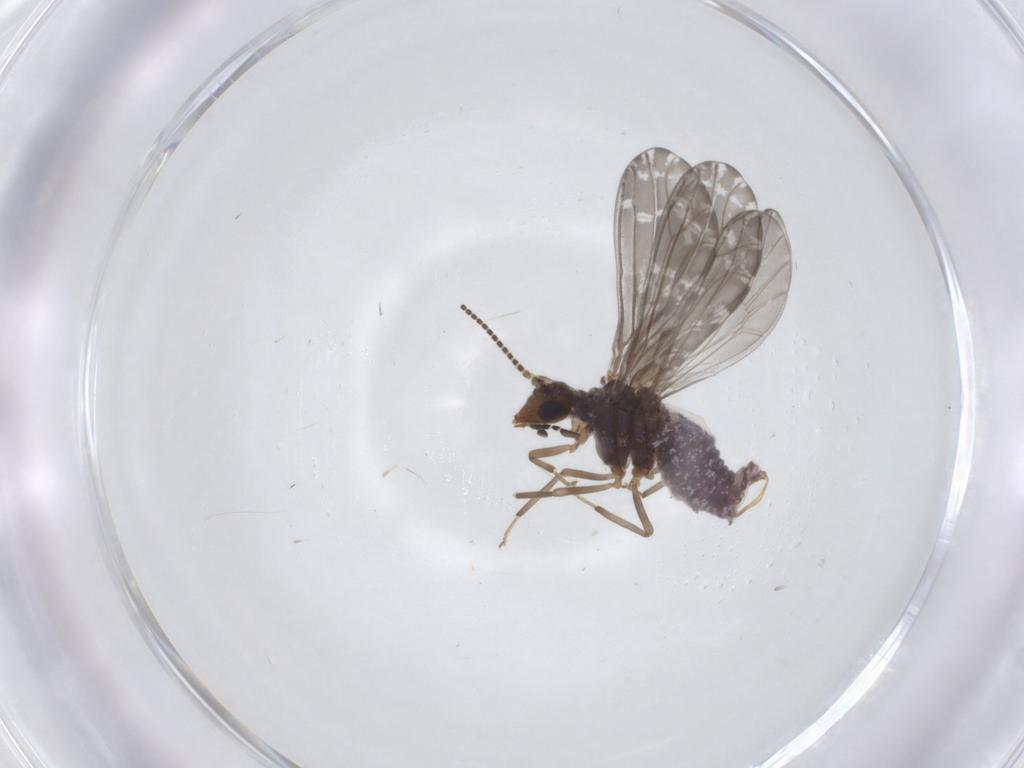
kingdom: Animalia
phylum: Arthropoda
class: Insecta
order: Neuroptera
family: Coniopterygidae
